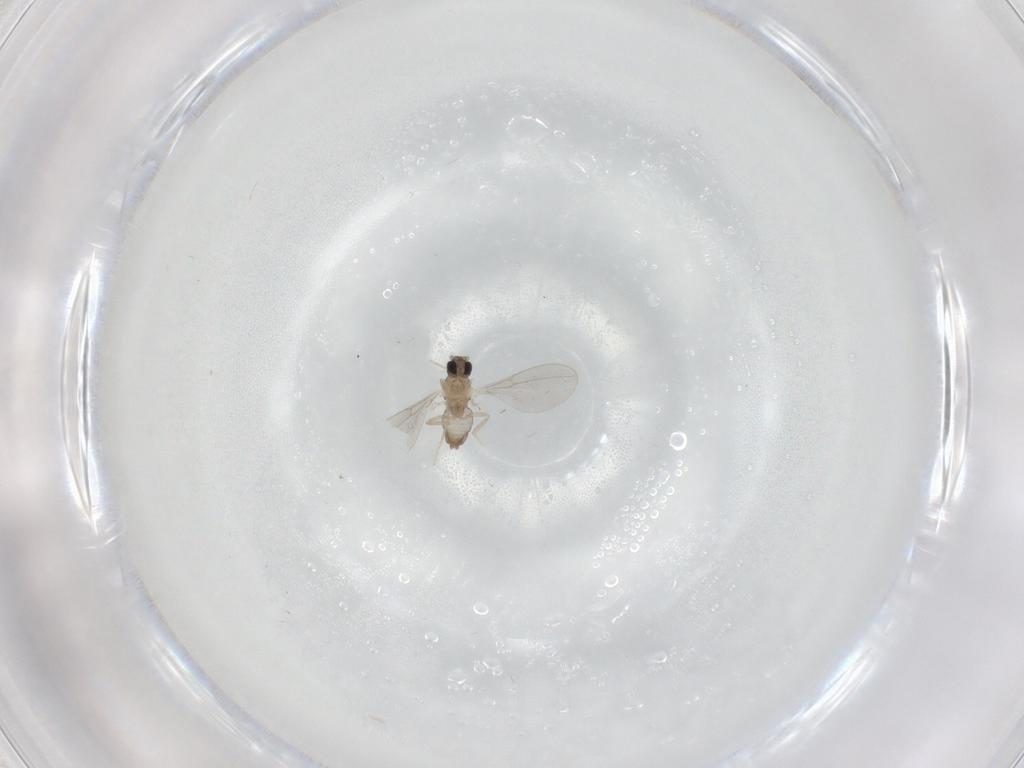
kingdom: Animalia
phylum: Arthropoda
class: Insecta
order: Diptera
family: Cecidomyiidae
